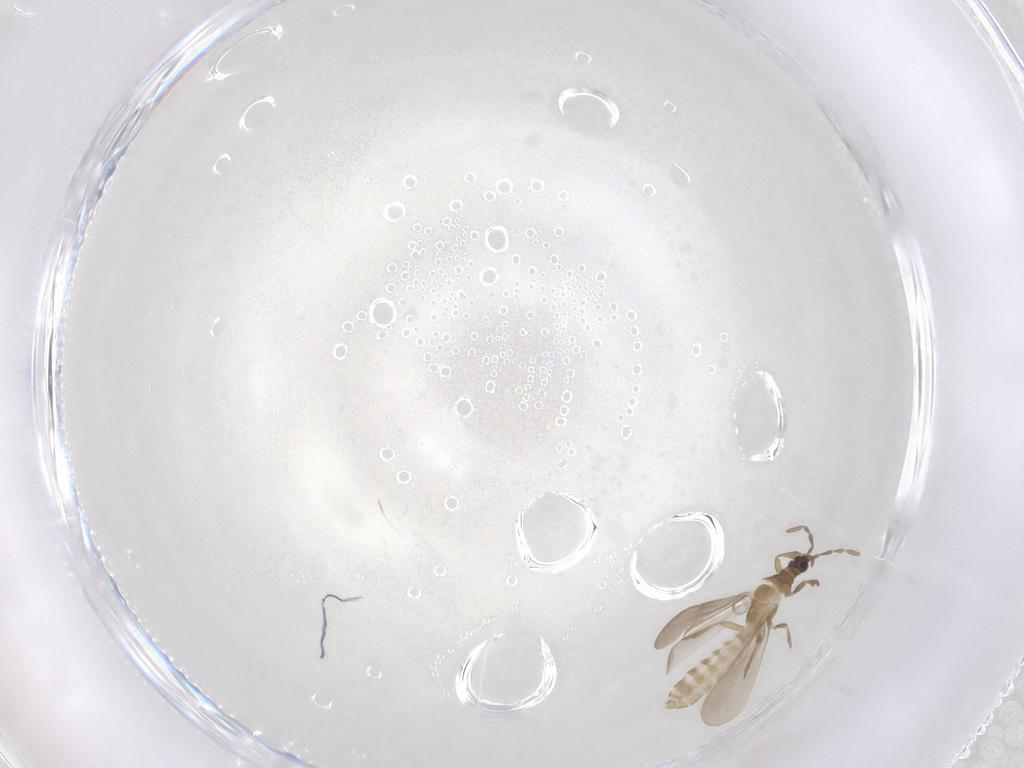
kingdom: Animalia
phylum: Arthropoda
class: Insecta
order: Hemiptera
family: Enicocephalidae
